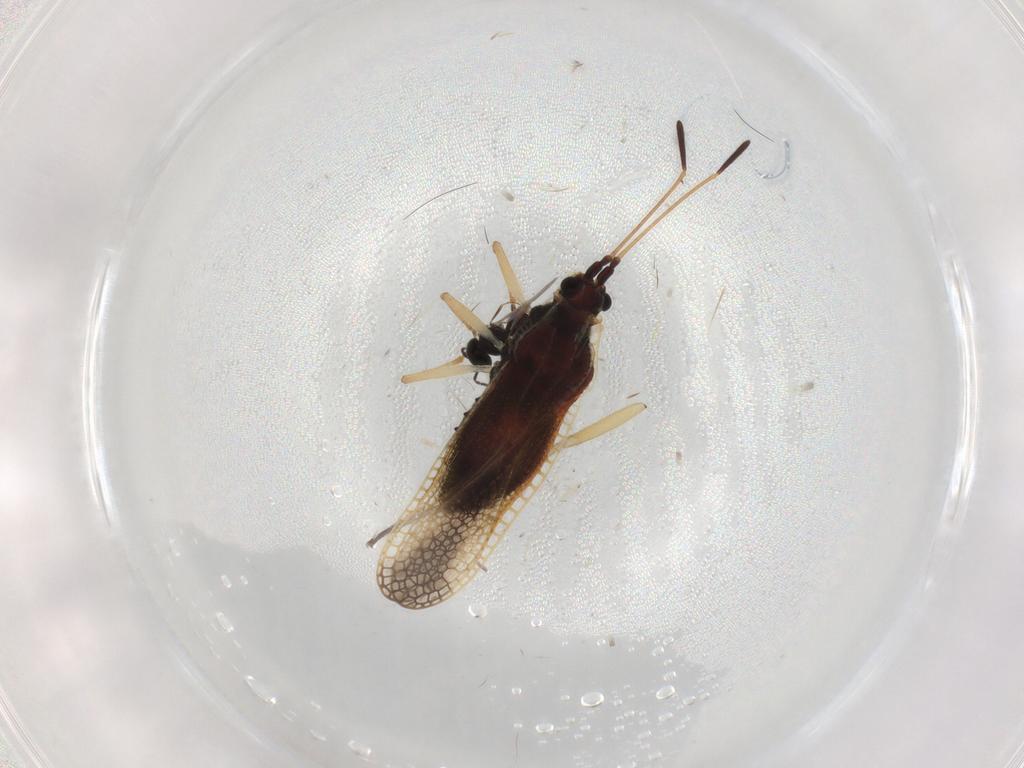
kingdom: Animalia
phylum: Arthropoda
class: Insecta
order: Hemiptera
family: Tingidae
